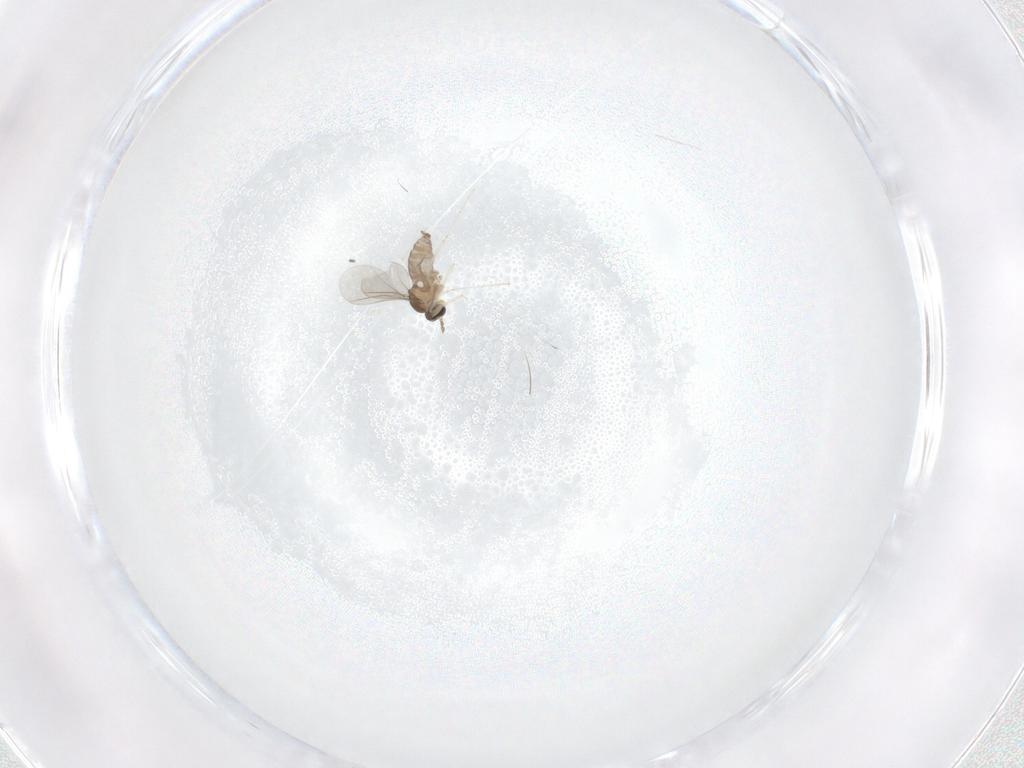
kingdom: Animalia
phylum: Arthropoda
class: Insecta
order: Diptera
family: Cecidomyiidae
